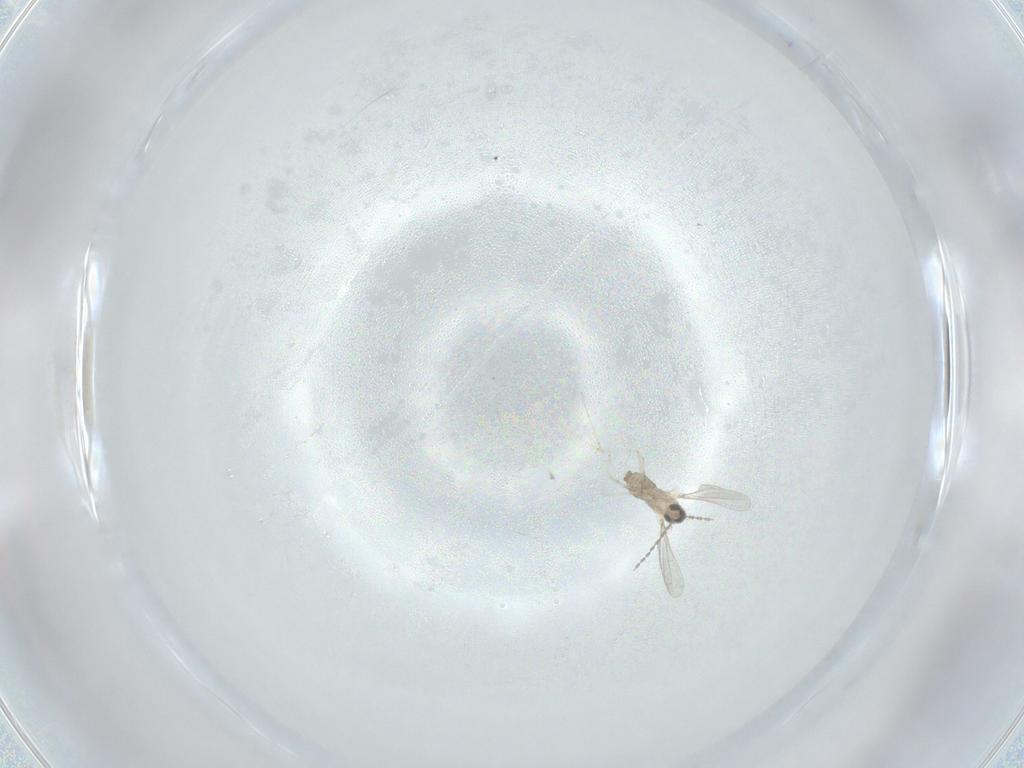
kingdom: Animalia
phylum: Arthropoda
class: Insecta
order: Diptera
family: Cecidomyiidae
